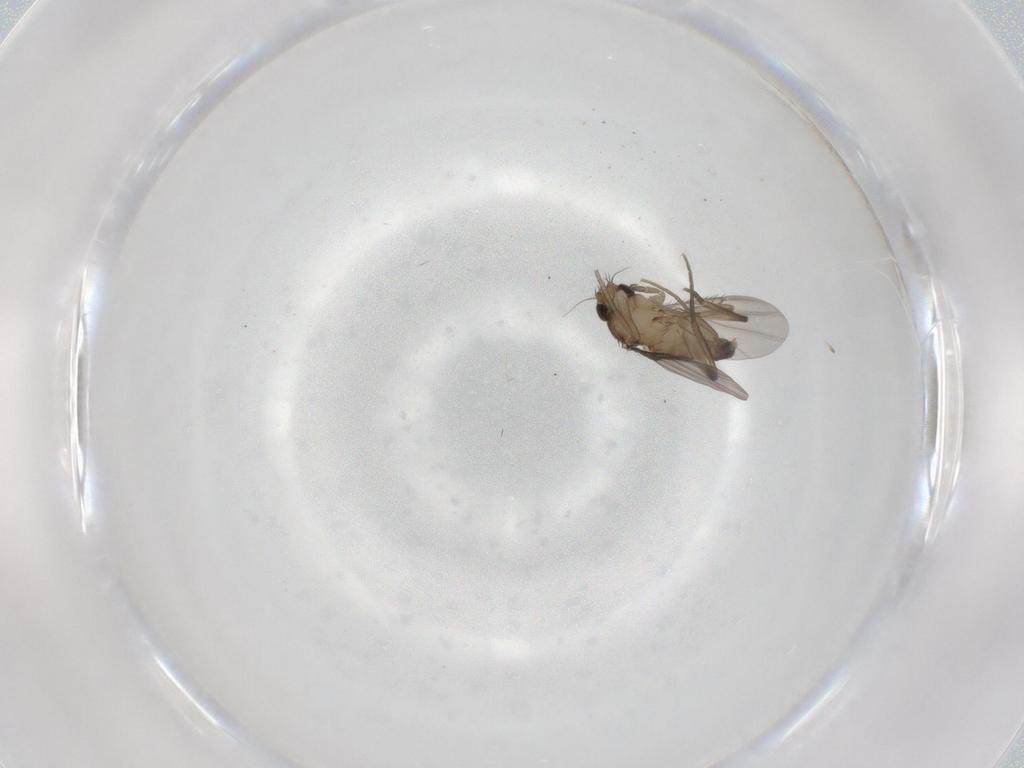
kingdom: Animalia
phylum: Arthropoda
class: Insecta
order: Diptera
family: Phoridae
